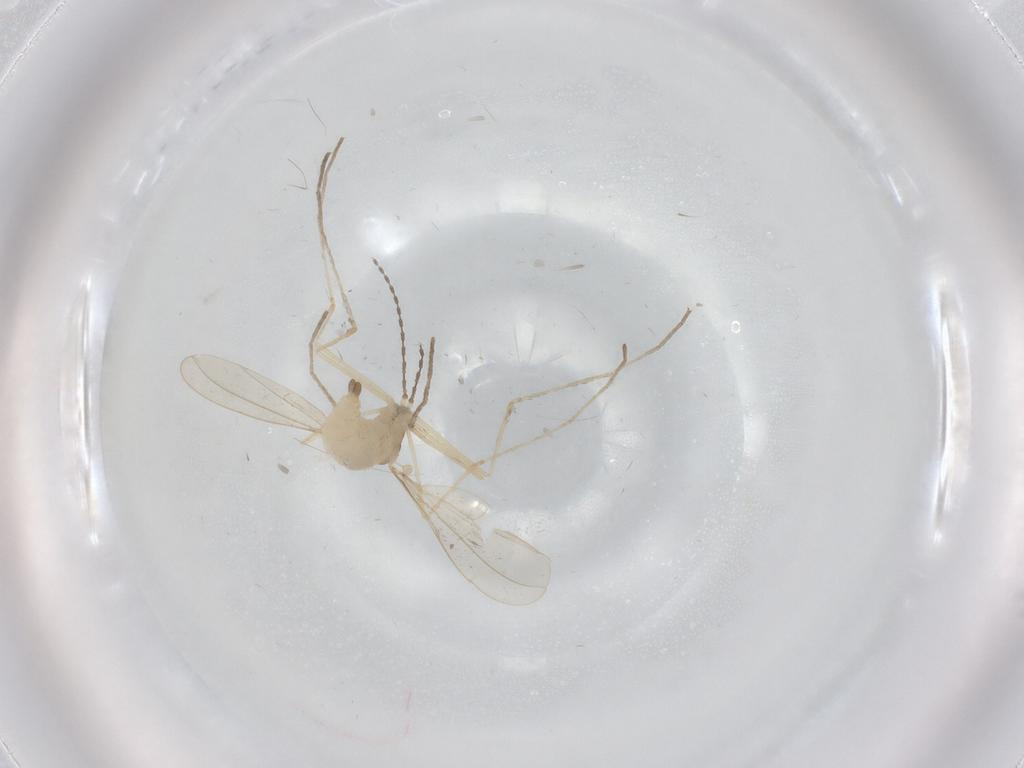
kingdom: Animalia
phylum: Arthropoda
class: Insecta
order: Diptera
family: Cecidomyiidae
